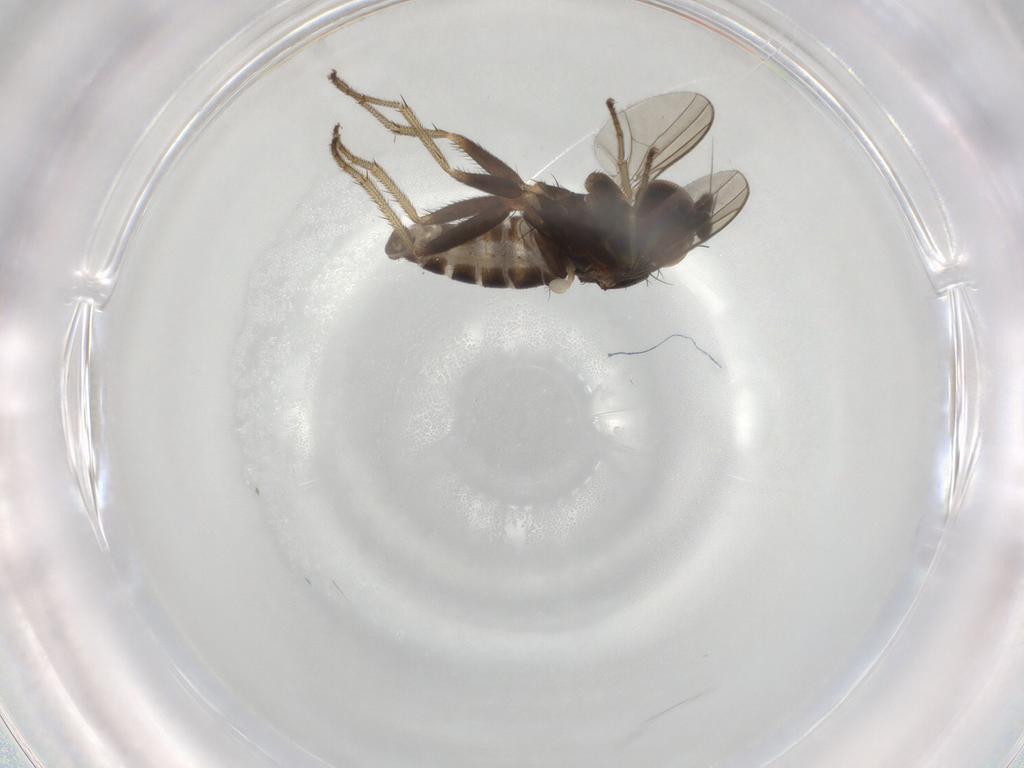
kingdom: Animalia
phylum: Arthropoda
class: Insecta
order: Diptera
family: Dolichopodidae
